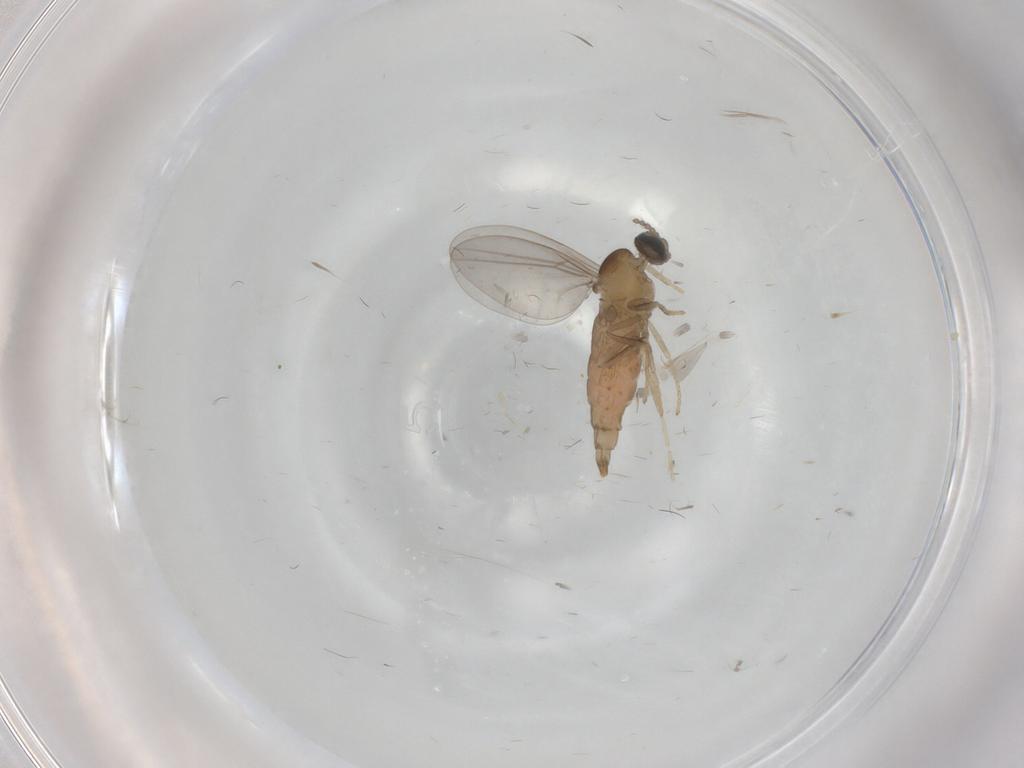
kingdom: Animalia
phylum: Arthropoda
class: Insecta
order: Diptera
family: Cecidomyiidae
